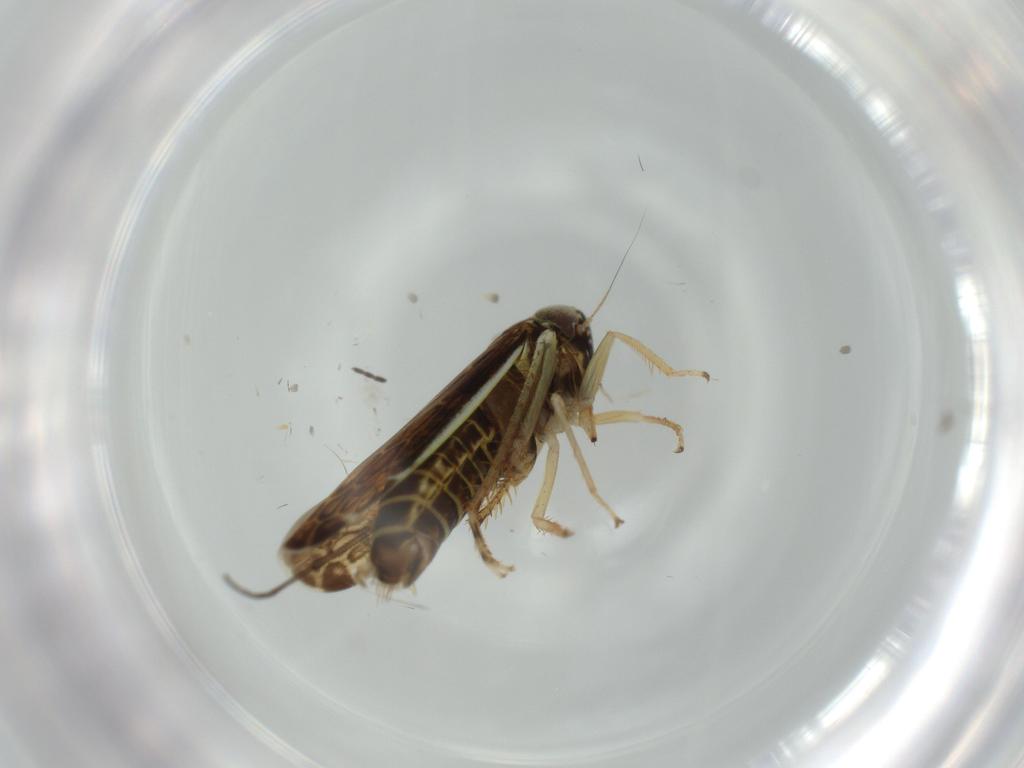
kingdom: Animalia
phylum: Arthropoda
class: Insecta
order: Hemiptera
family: Cicadellidae
